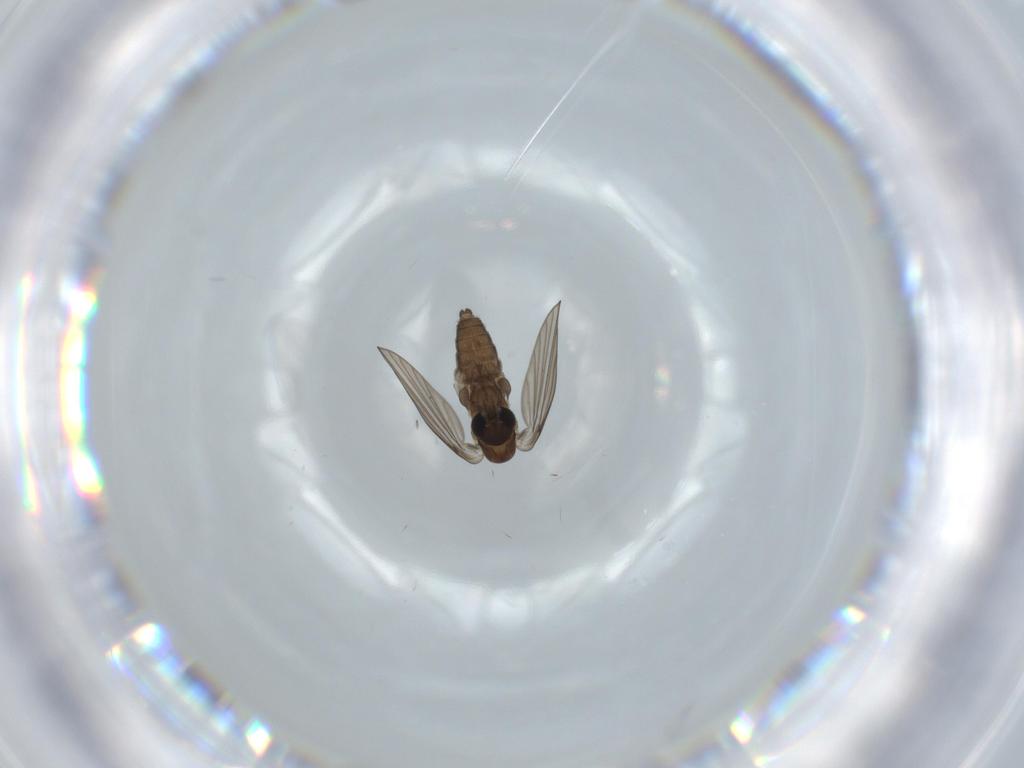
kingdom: Animalia
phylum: Arthropoda
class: Insecta
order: Diptera
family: Psychodidae
